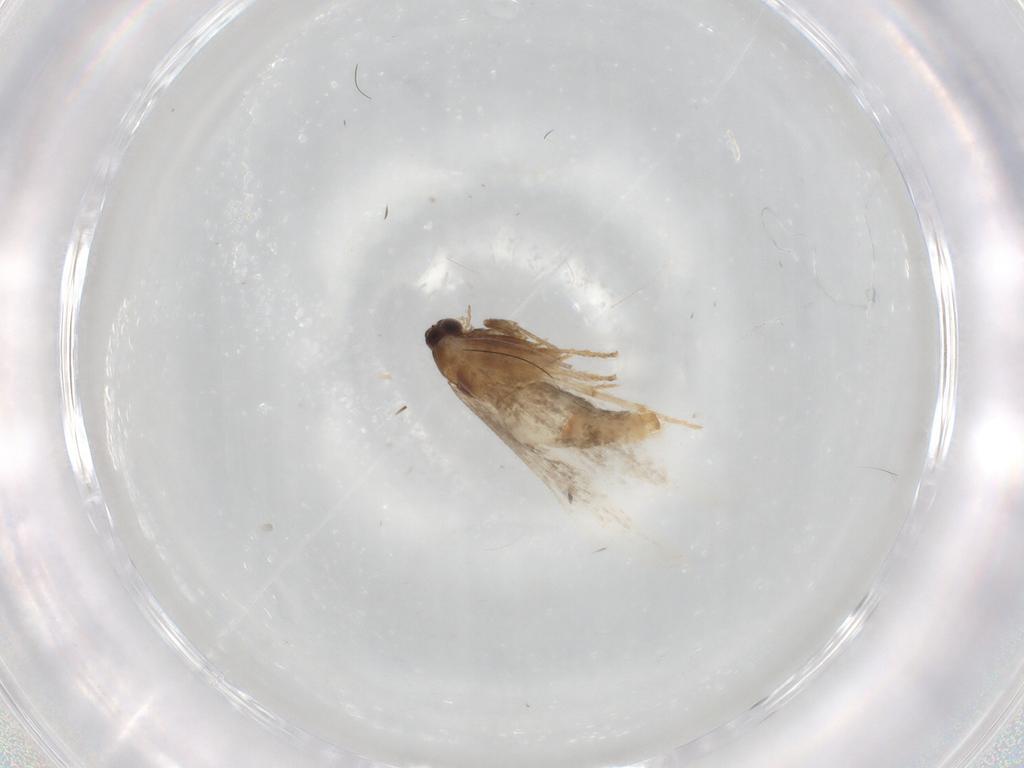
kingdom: Animalia
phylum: Arthropoda
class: Insecta
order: Lepidoptera
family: Nepticulidae
